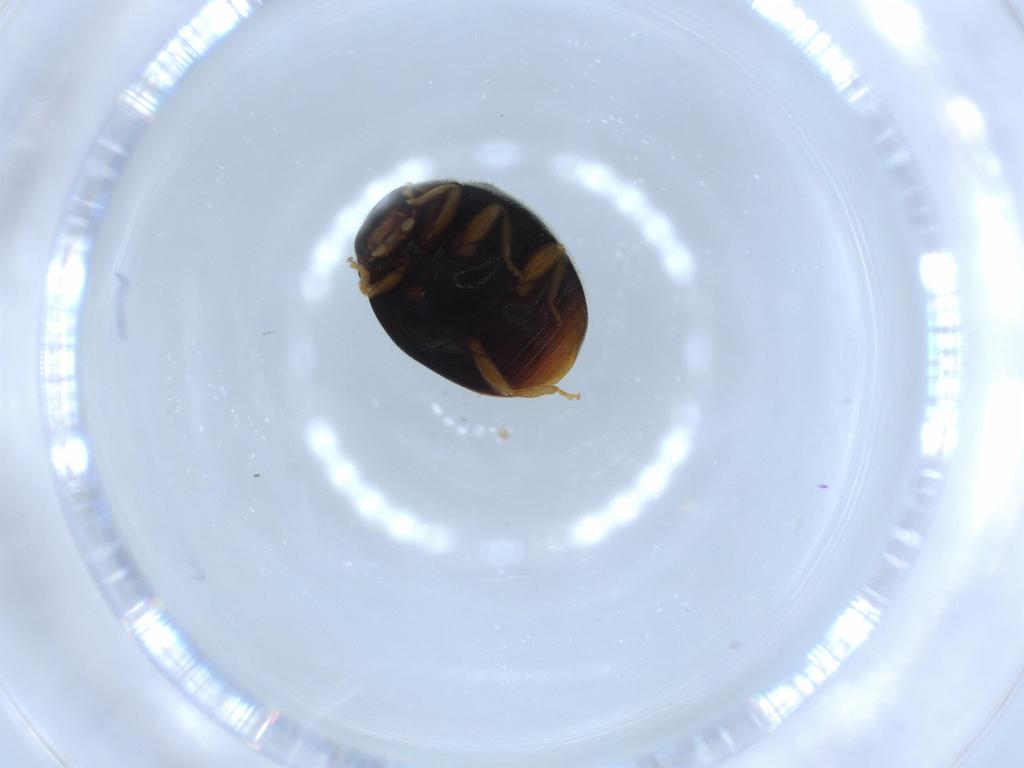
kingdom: Animalia
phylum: Arthropoda
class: Insecta
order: Coleoptera
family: Coccinellidae
